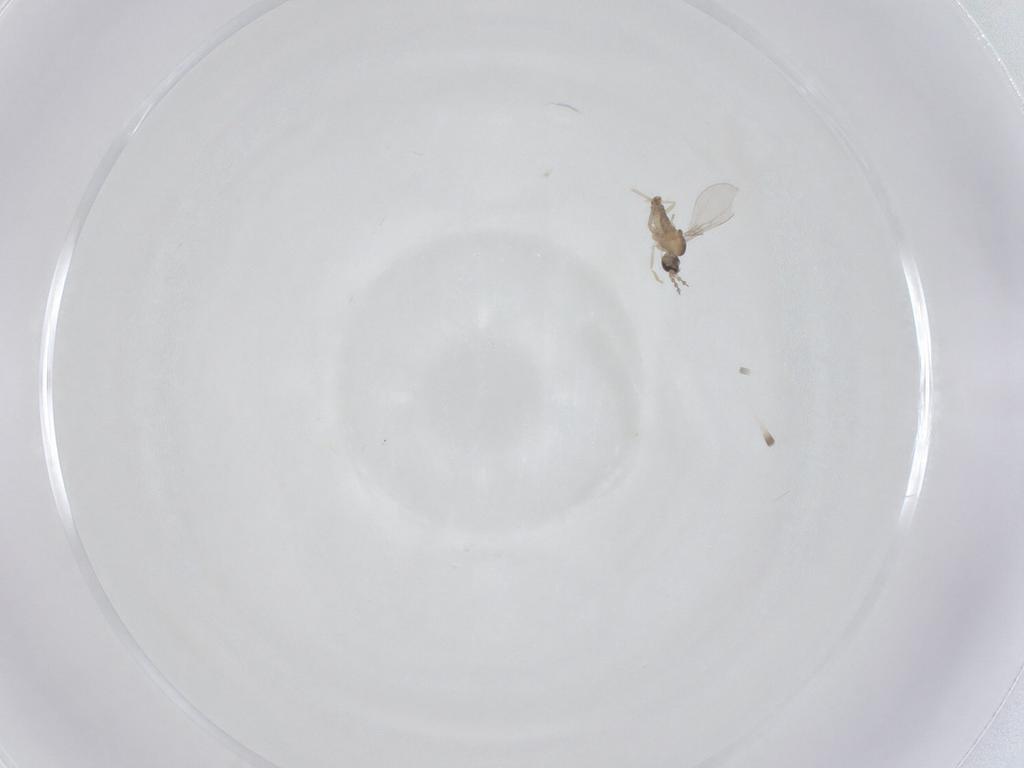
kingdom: Animalia
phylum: Arthropoda
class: Insecta
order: Diptera
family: Cecidomyiidae
